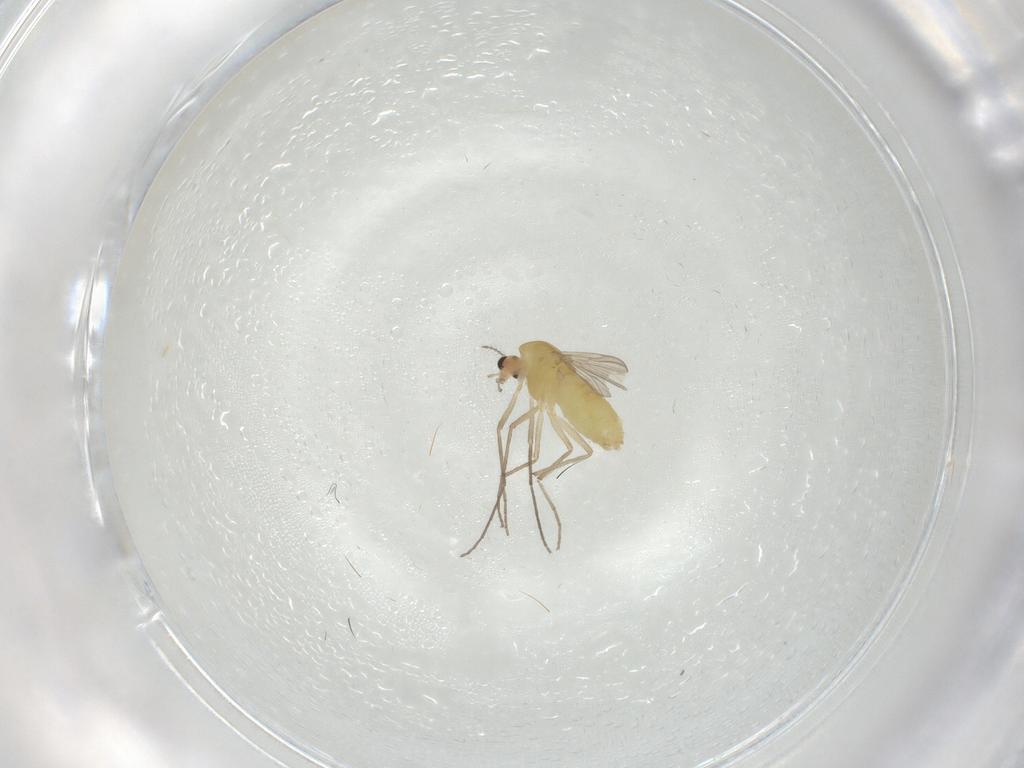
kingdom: Animalia
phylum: Arthropoda
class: Insecta
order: Diptera
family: Chironomidae
